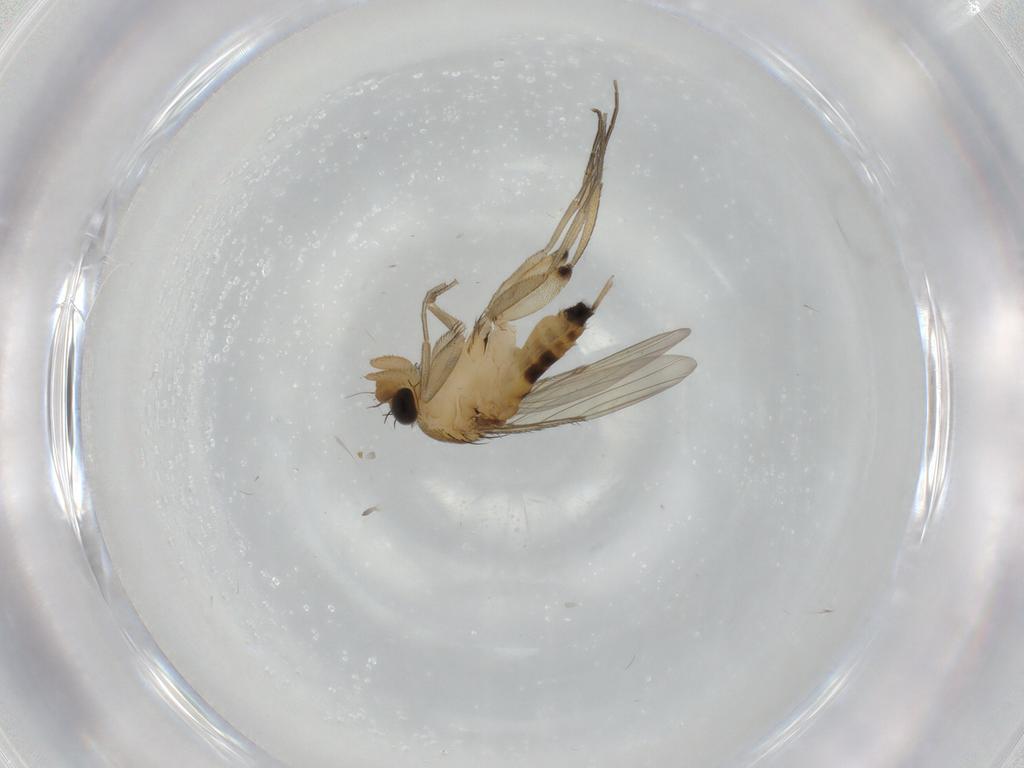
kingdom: Animalia
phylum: Arthropoda
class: Insecta
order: Diptera
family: Phoridae
